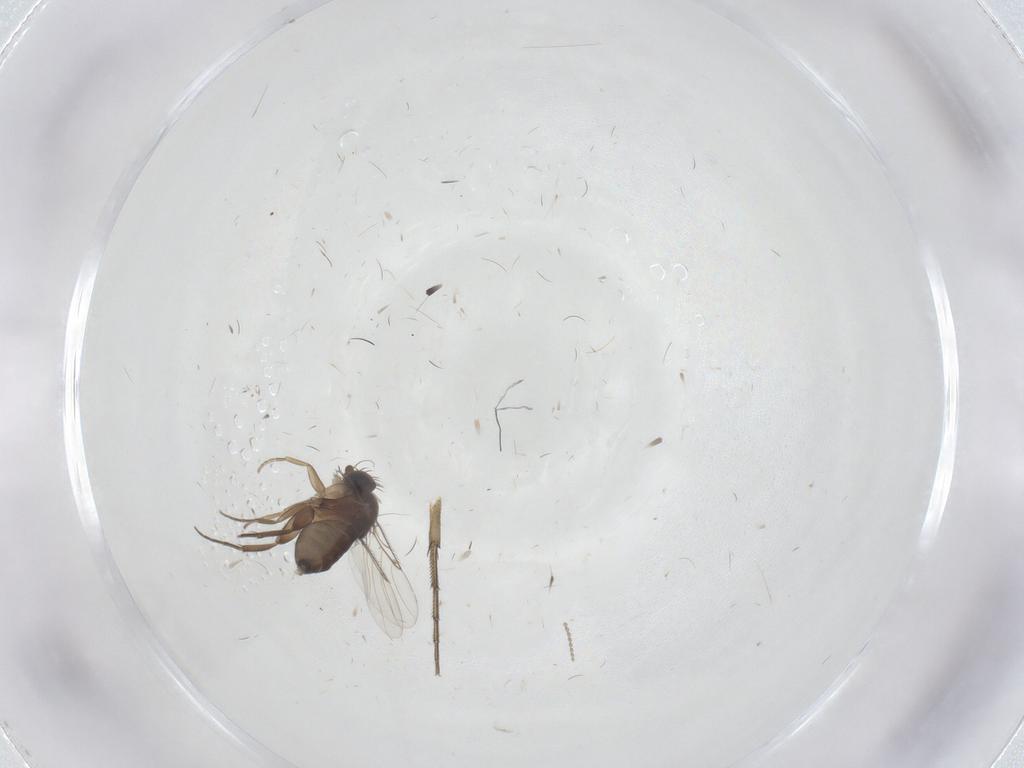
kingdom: Animalia
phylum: Arthropoda
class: Insecta
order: Diptera
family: Phoridae
